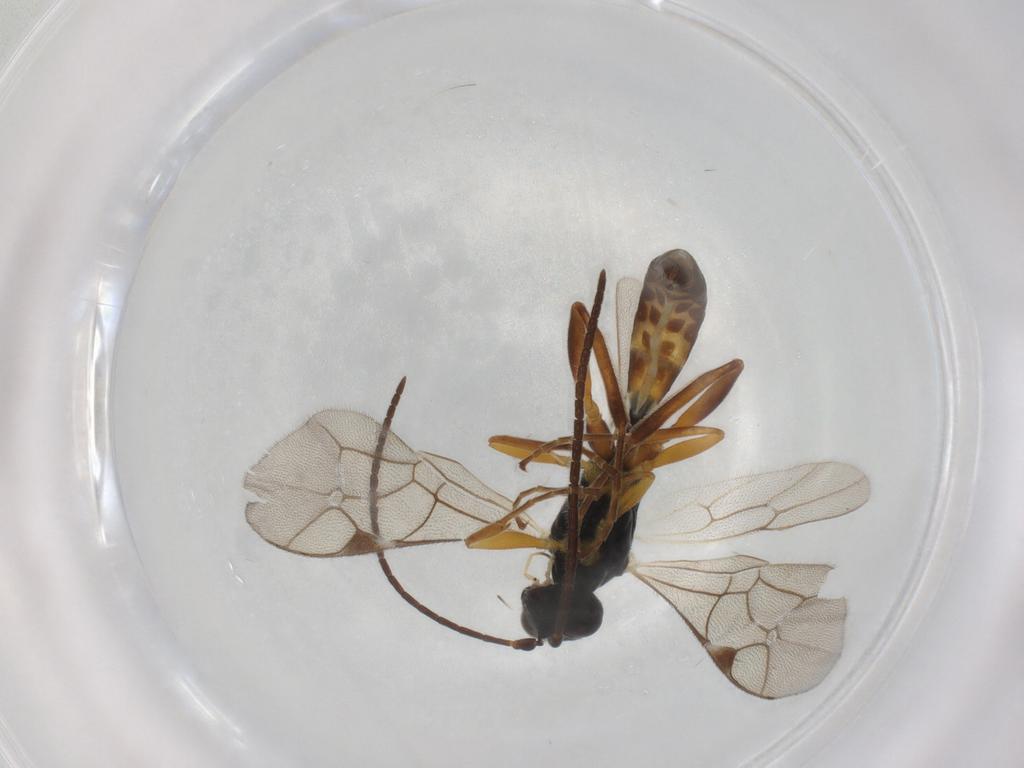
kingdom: Animalia
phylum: Arthropoda
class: Insecta
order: Hymenoptera
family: Ichneumonidae
